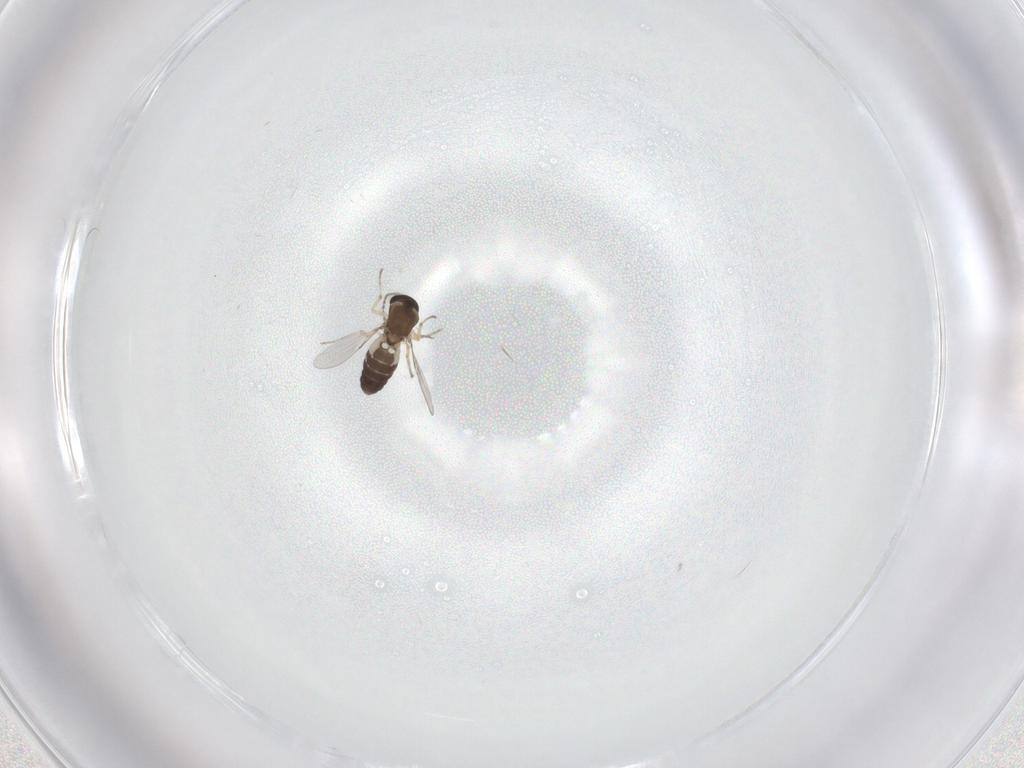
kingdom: Animalia
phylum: Arthropoda
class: Insecta
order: Diptera
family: Ceratopogonidae
